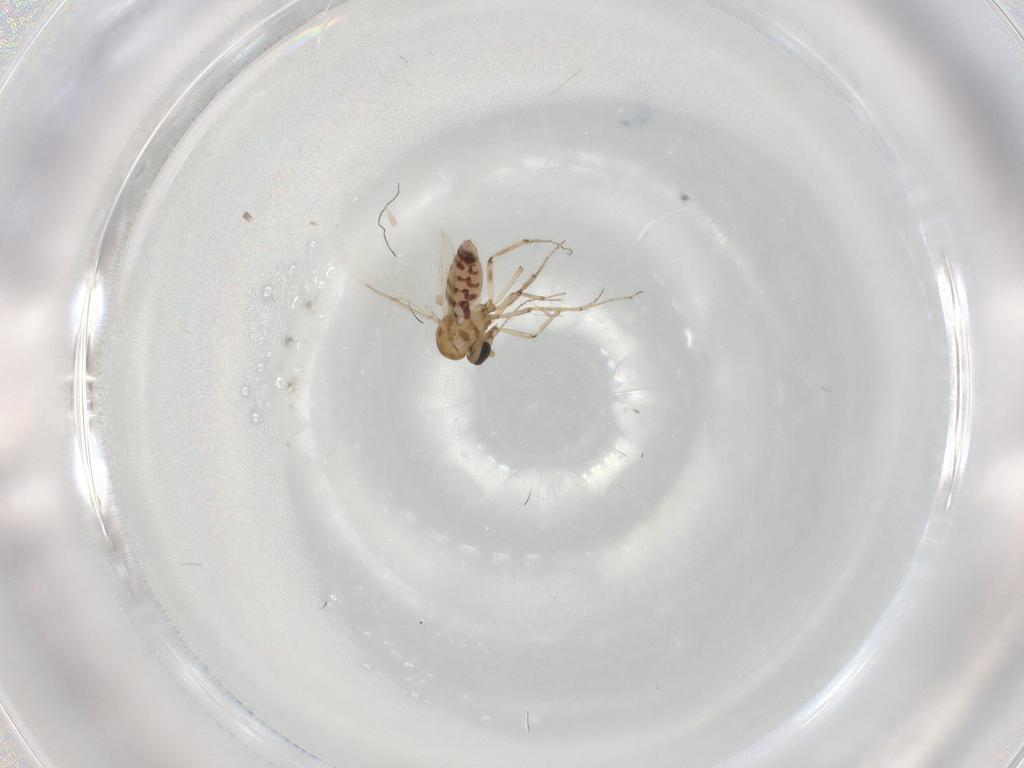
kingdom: Animalia
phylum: Arthropoda
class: Insecta
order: Diptera
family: Ceratopogonidae
